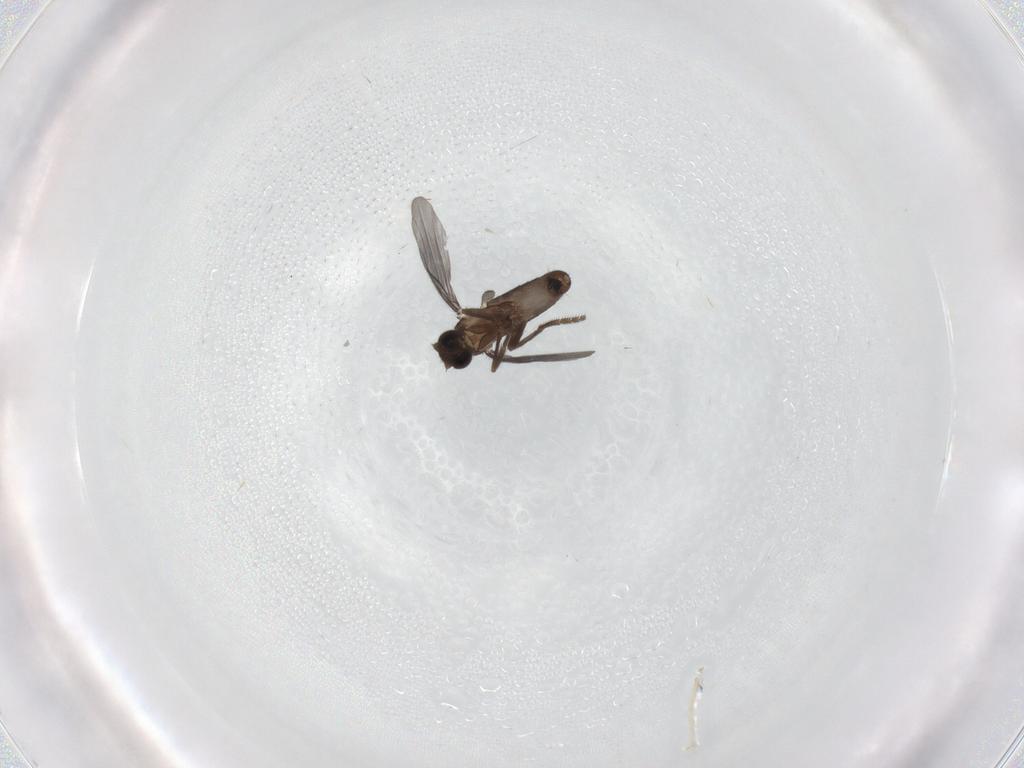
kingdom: Animalia
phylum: Arthropoda
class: Insecta
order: Diptera
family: Phoridae
